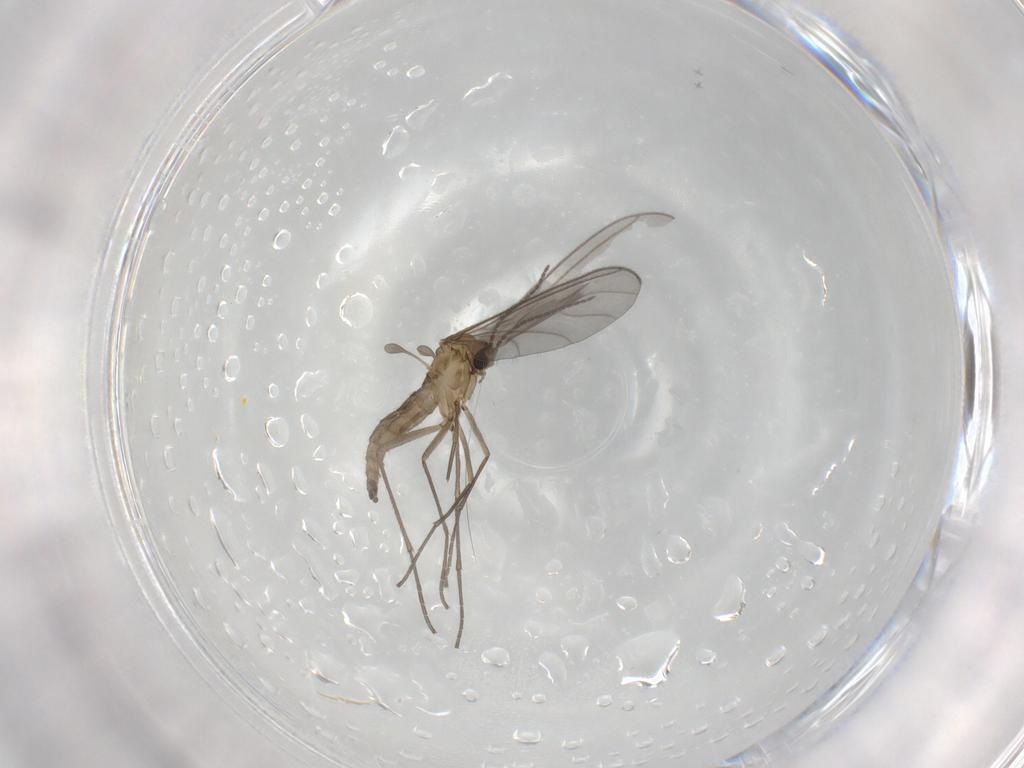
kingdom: Animalia
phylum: Arthropoda
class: Insecta
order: Diptera
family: Sciaridae
